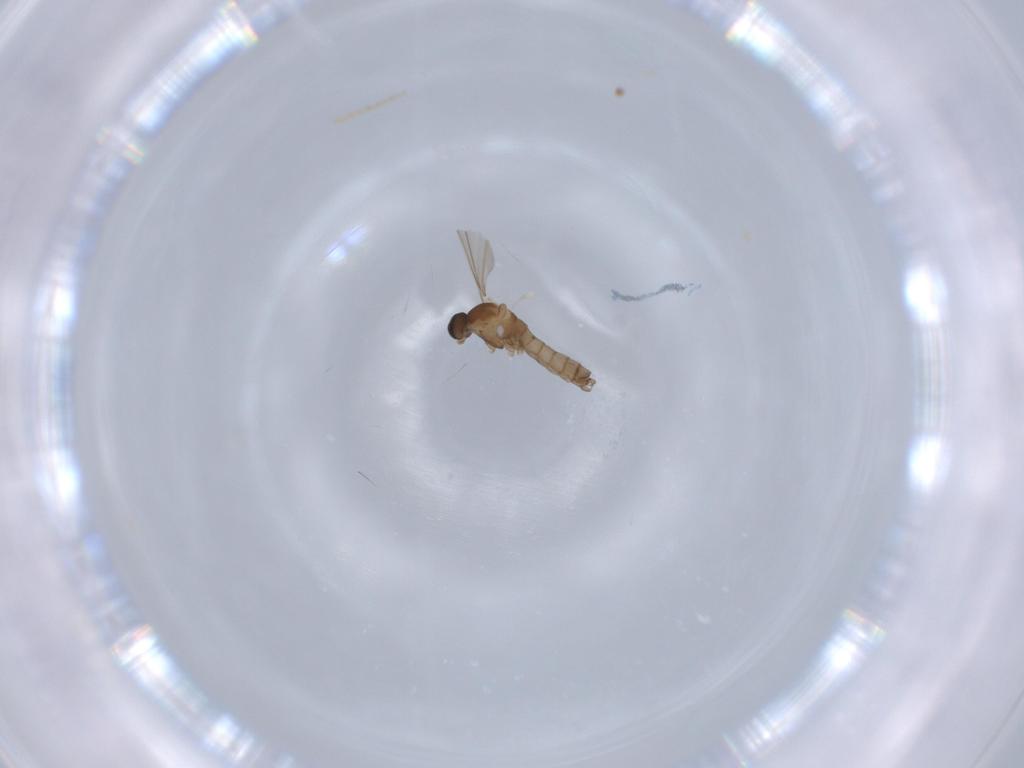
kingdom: Animalia
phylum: Arthropoda
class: Insecta
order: Diptera
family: Cecidomyiidae
